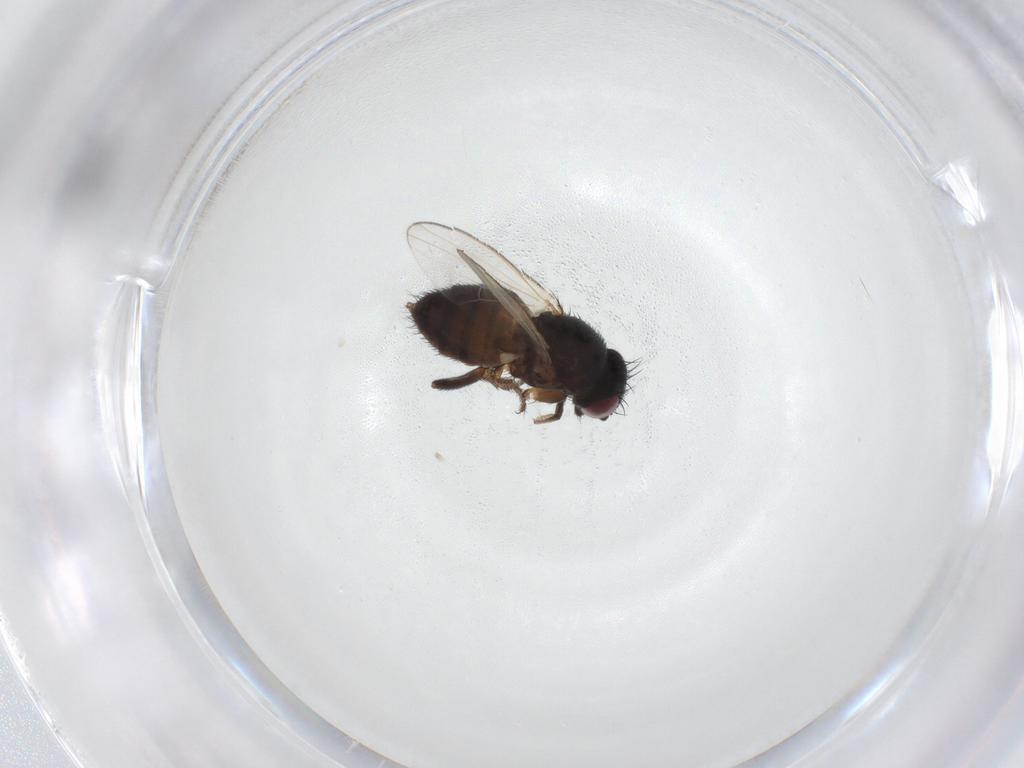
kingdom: Animalia
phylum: Arthropoda
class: Insecta
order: Diptera
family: Milichiidae
